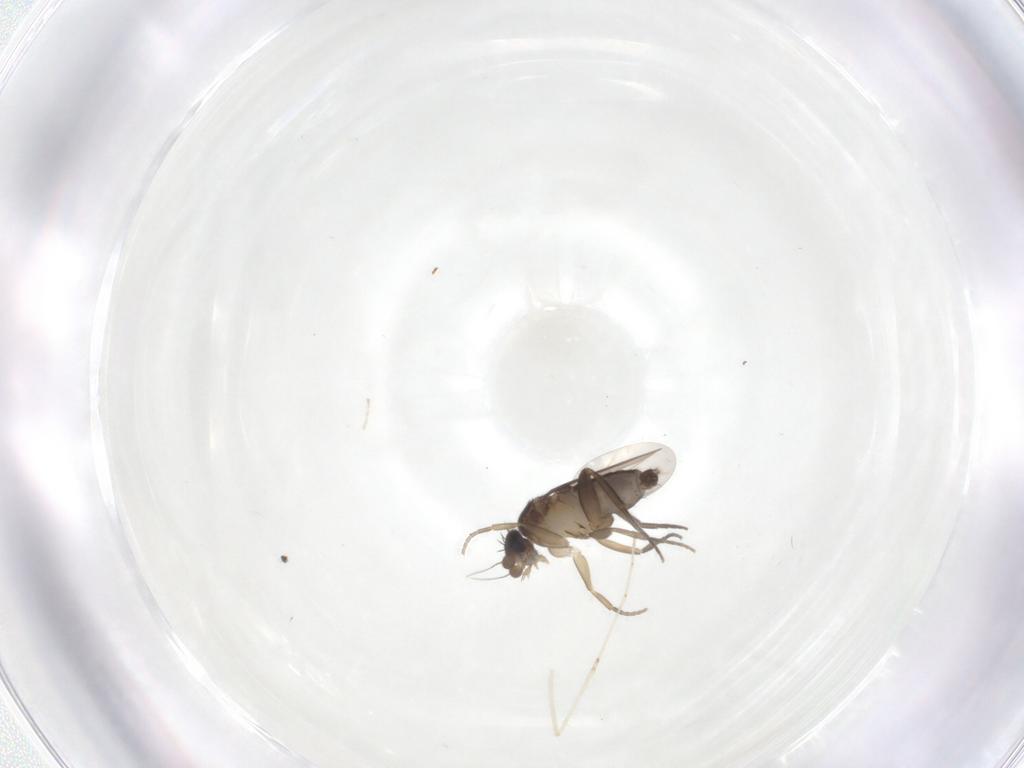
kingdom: Animalia
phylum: Arthropoda
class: Insecta
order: Diptera
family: Phoridae
